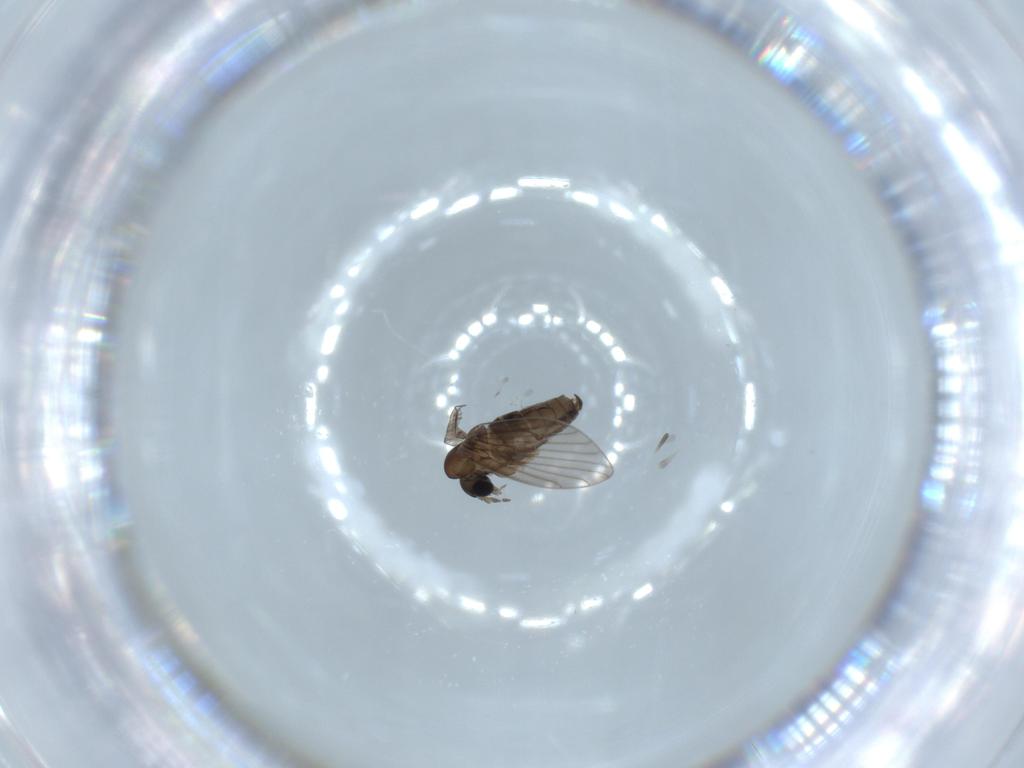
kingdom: Animalia
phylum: Arthropoda
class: Insecta
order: Diptera
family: Psychodidae
